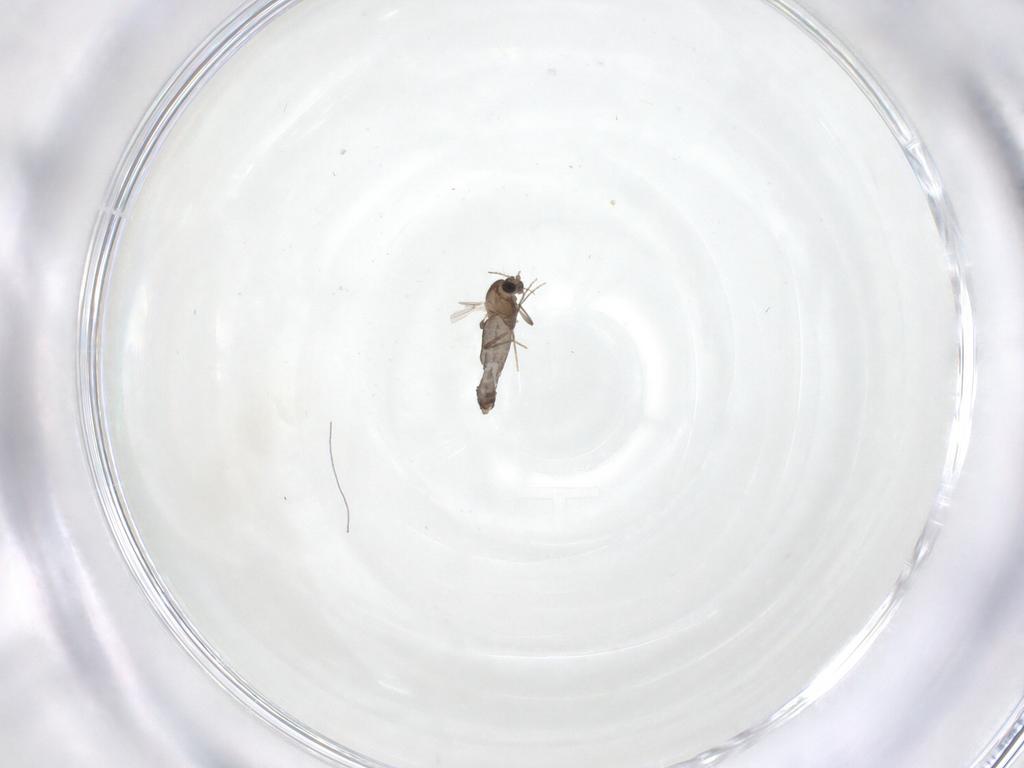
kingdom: Animalia
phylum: Arthropoda
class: Insecta
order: Diptera
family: Chironomidae
